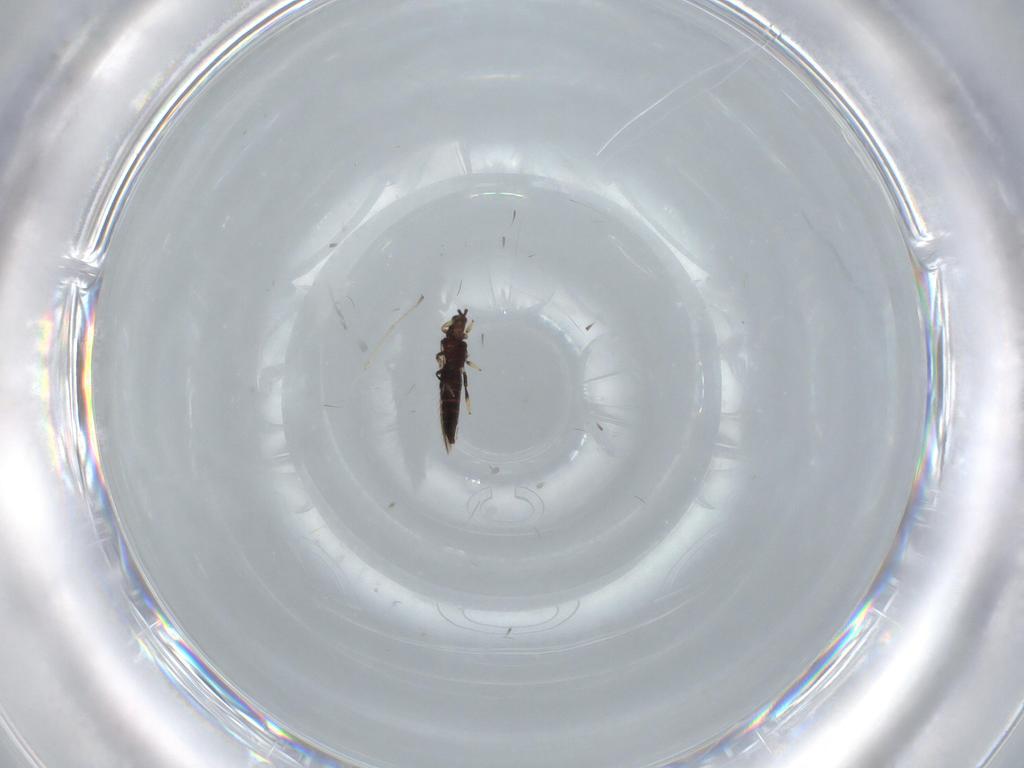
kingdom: Animalia
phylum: Arthropoda
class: Insecta
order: Thysanoptera
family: Thripidae
